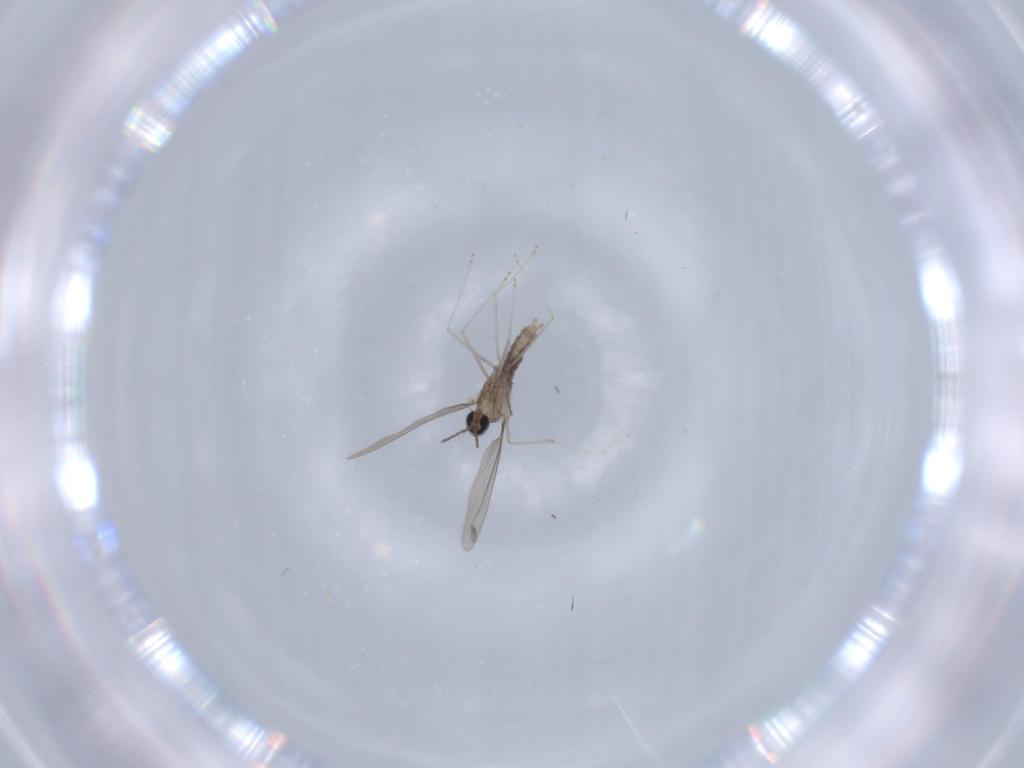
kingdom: Animalia
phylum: Arthropoda
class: Insecta
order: Diptera
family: Cecidomyiidae
